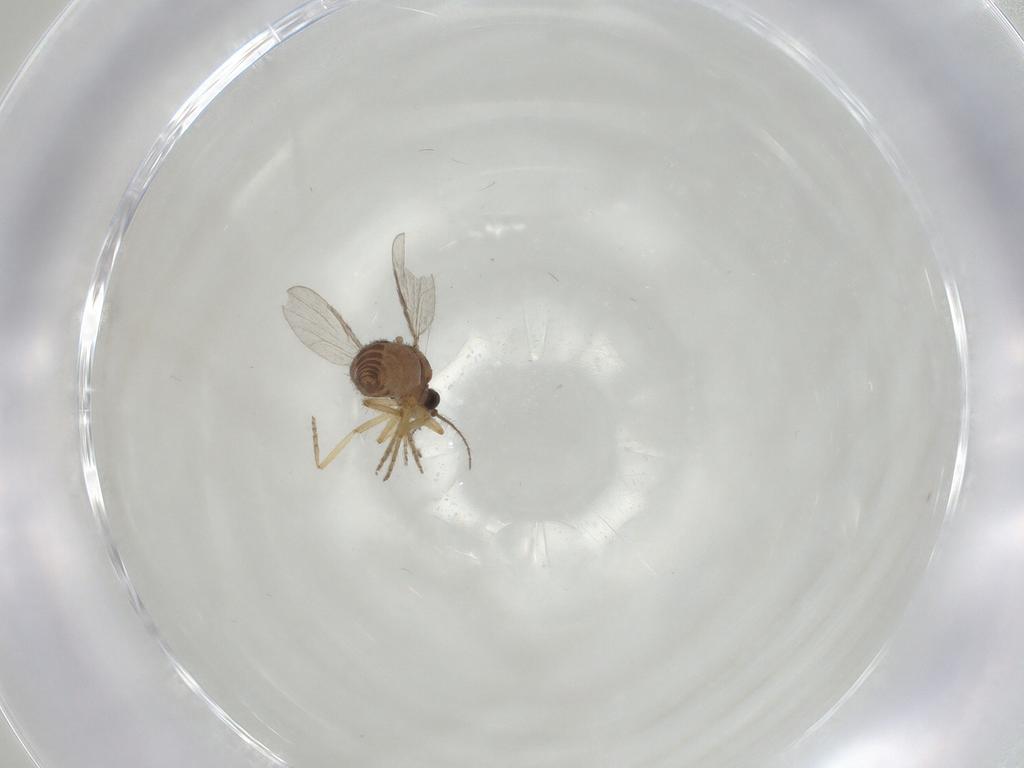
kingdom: Animalia
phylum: Arthropoda
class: Insecta
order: Diptera
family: Ceratopogonidae
